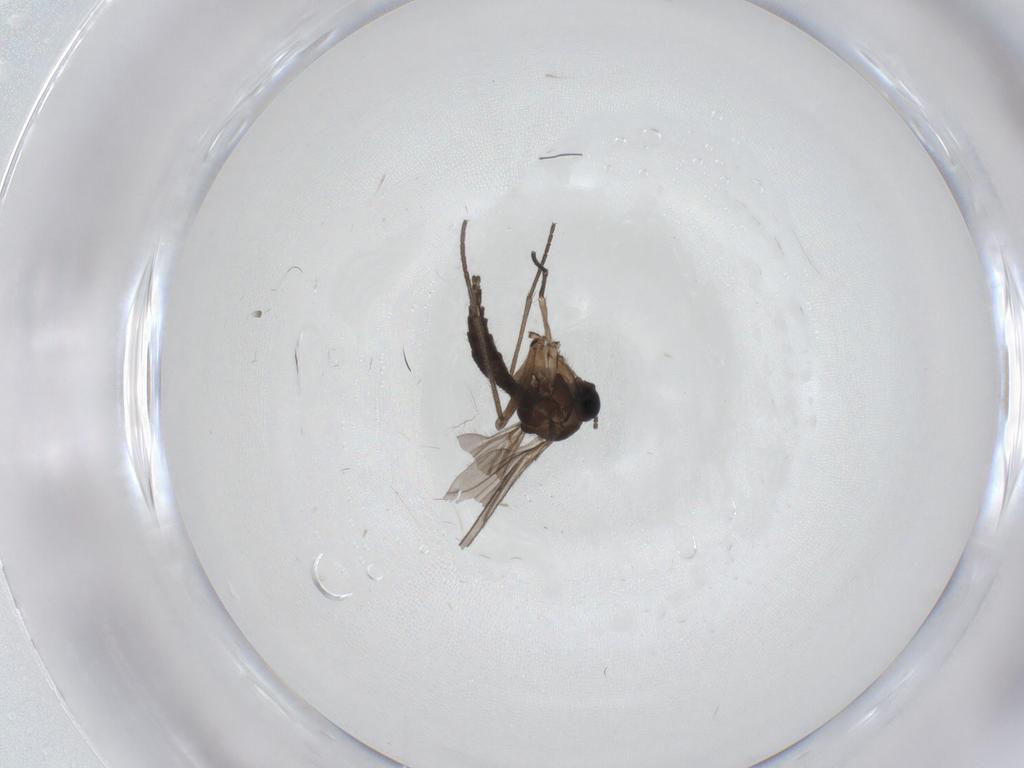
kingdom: Animalia
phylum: Arthropoda
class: Insecta
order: Diptera
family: Sciaridae
